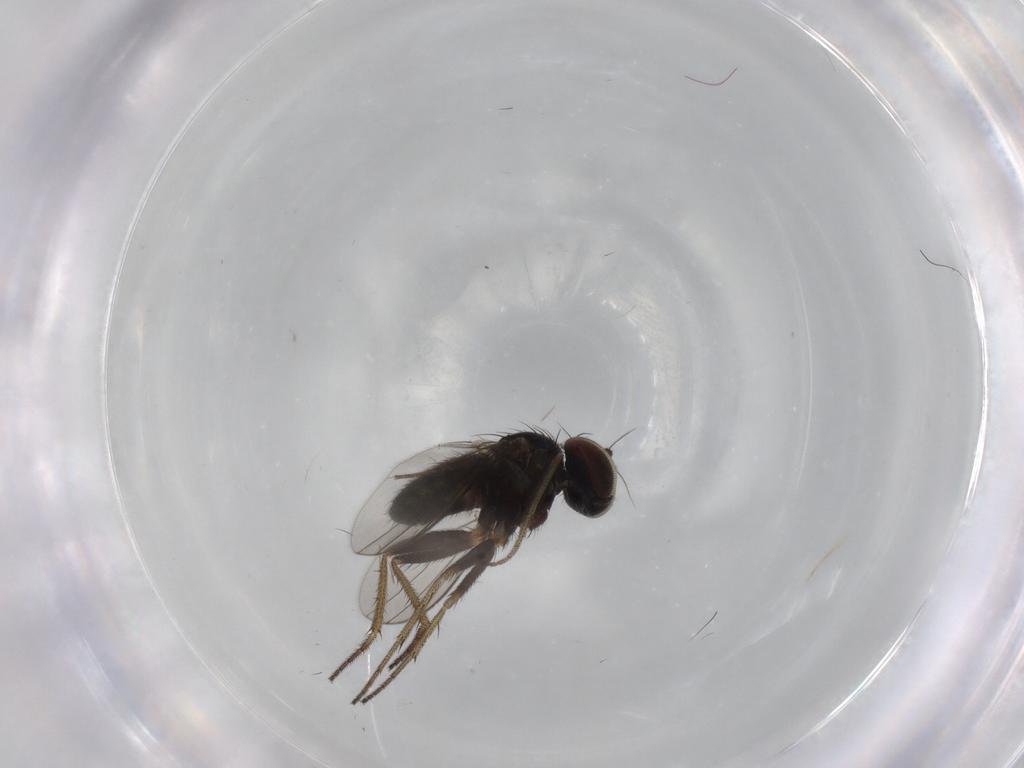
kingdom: Animalia
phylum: Arthropoda
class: Insecta
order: Diptera
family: Dolichopodidae
